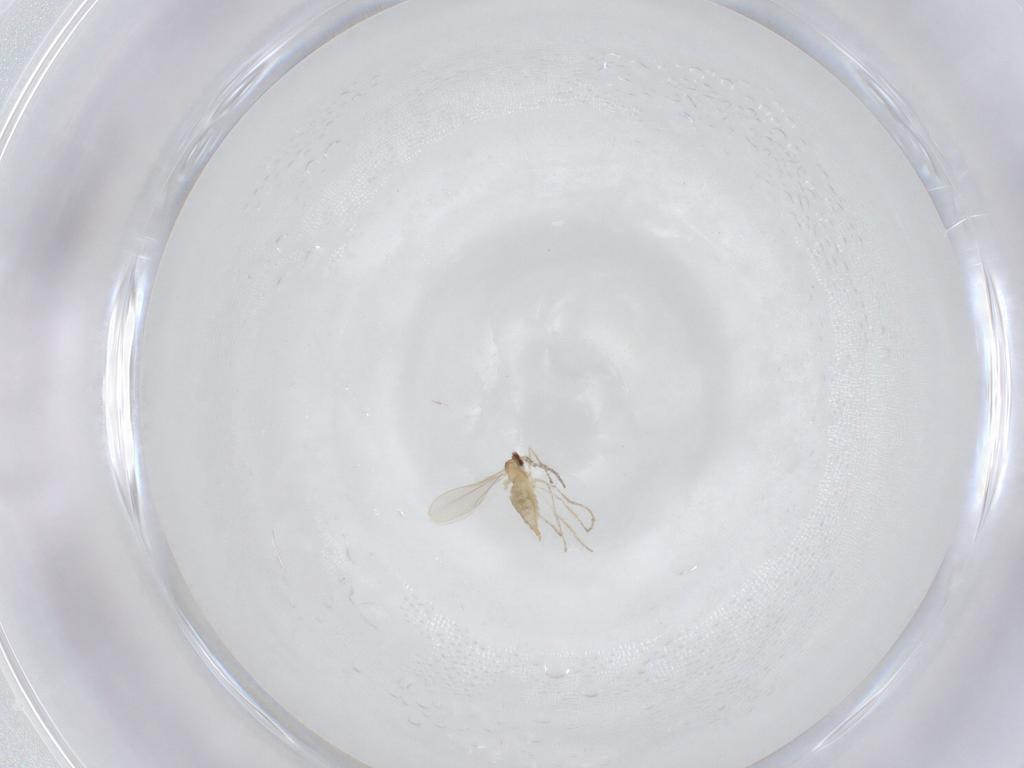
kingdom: Animalia
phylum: Arthropoda
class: Insecta
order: Diptera
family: Cecidomyiidae
